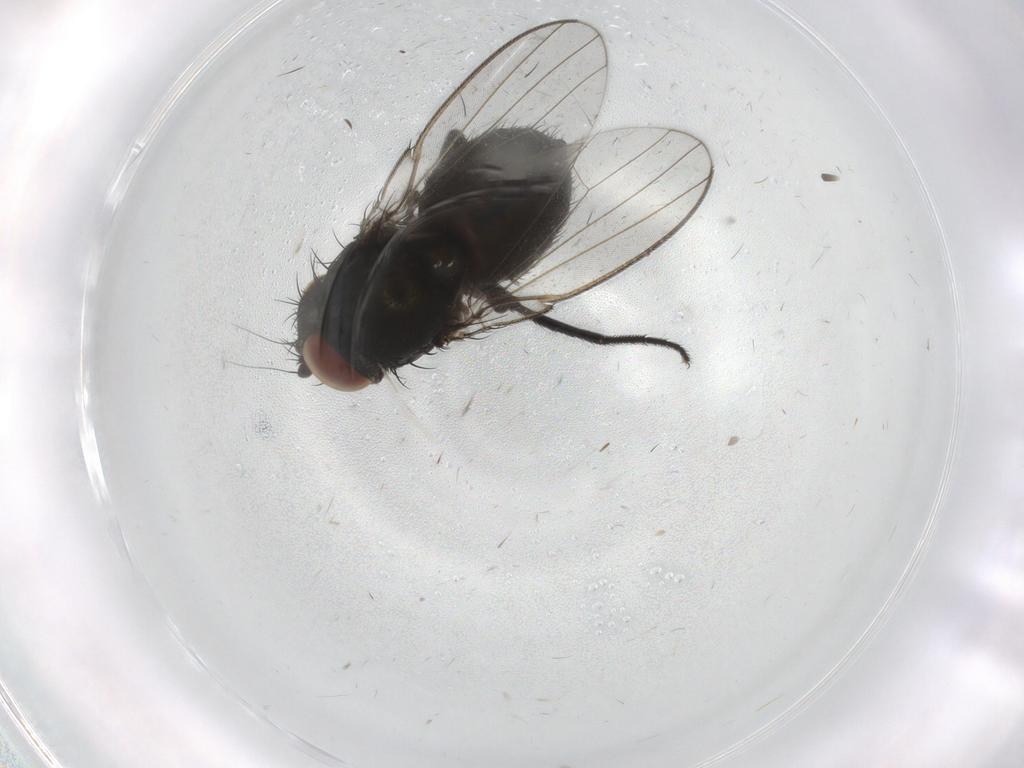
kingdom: Animalia
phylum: Arthropoda
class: Insecta
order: Diptera
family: Milichiidae
